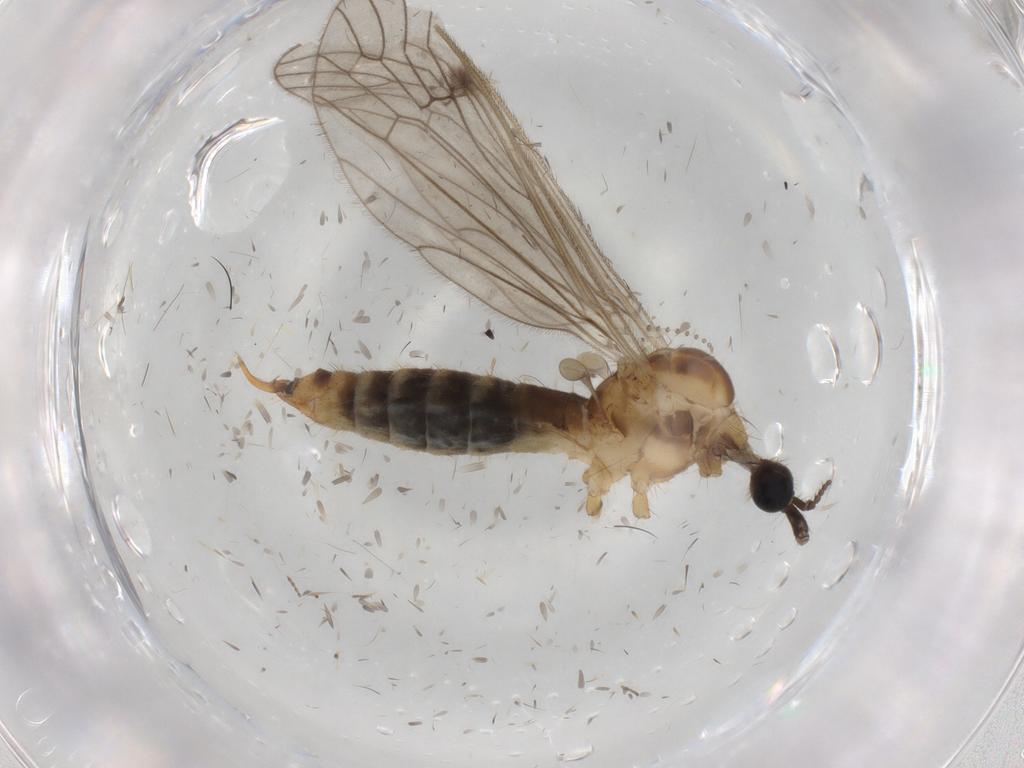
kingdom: Animalia
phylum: Arthropoda
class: Insecta
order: Diptera
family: Limoniidae
